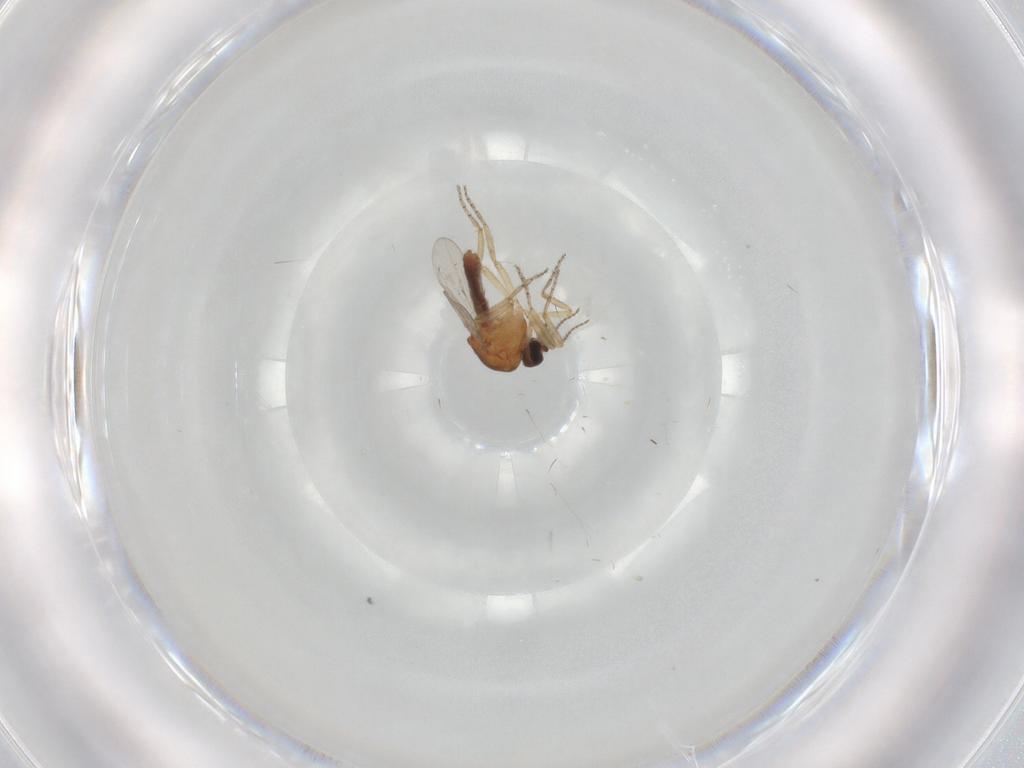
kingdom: Animalia
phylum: Arthropoda
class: Insecta
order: Diptera
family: Ceratopogonidae
